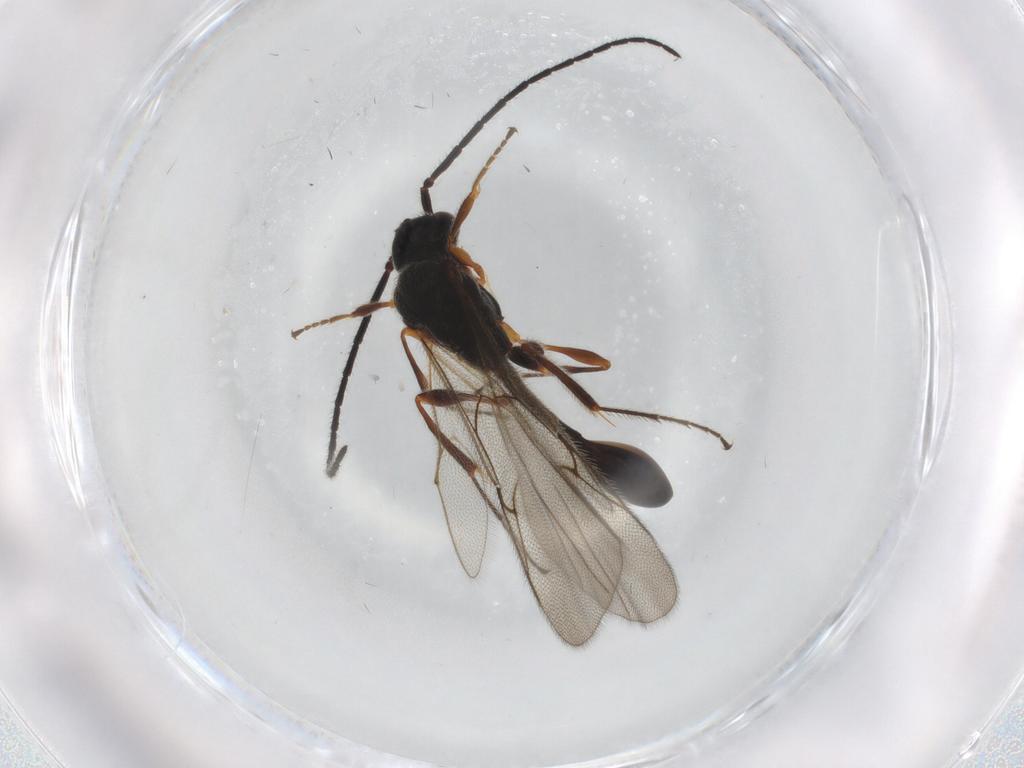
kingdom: Animalia
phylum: Arthropoda
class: Insecta
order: Hymenoptera
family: Diapriidae
